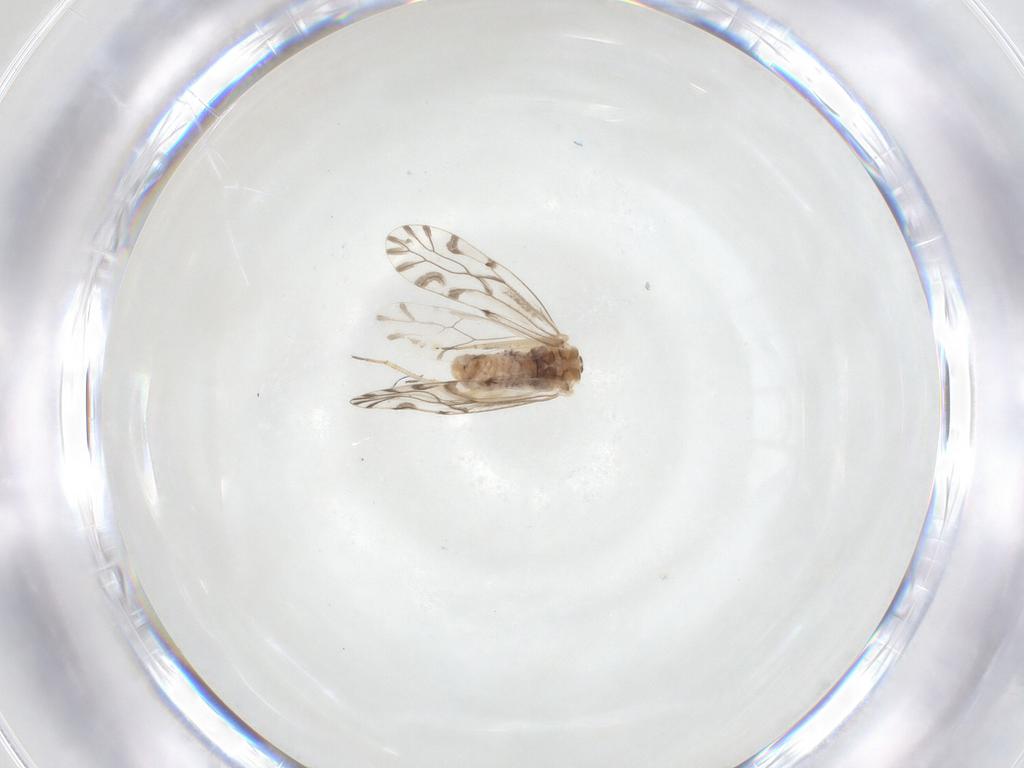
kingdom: Animalia
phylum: Arthropoda
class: Insecta
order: Psocodea
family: Lachesillidae
